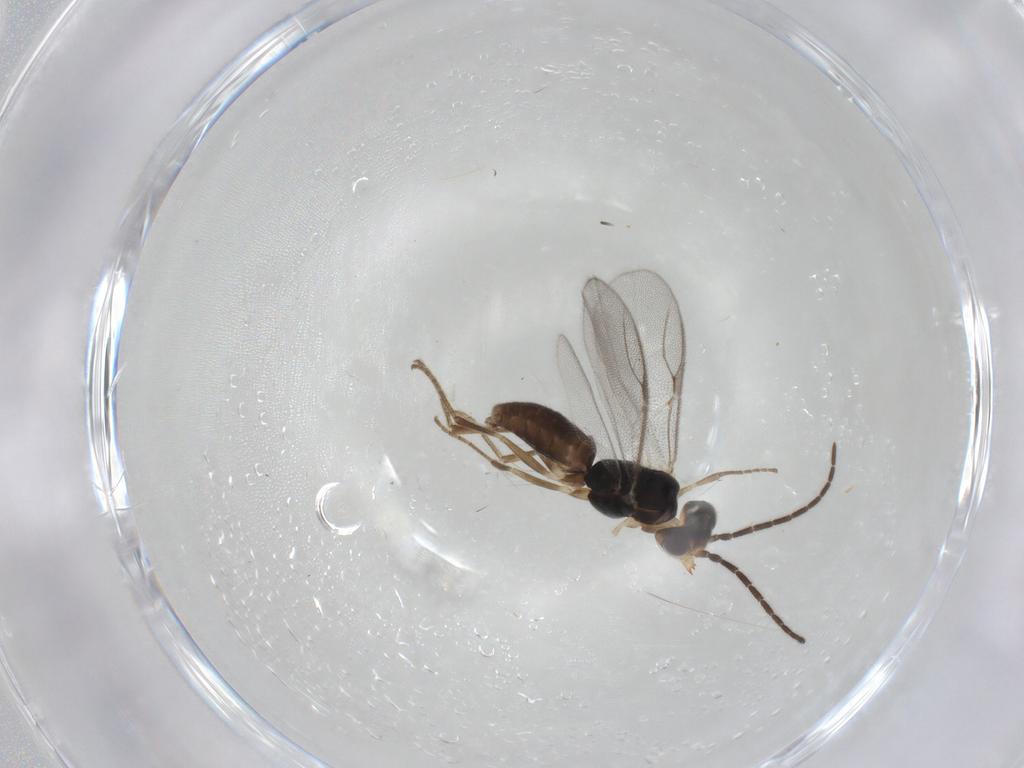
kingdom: Animalia
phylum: Arthropoda
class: Insecta
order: Hymenoptera
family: Dryinidae
